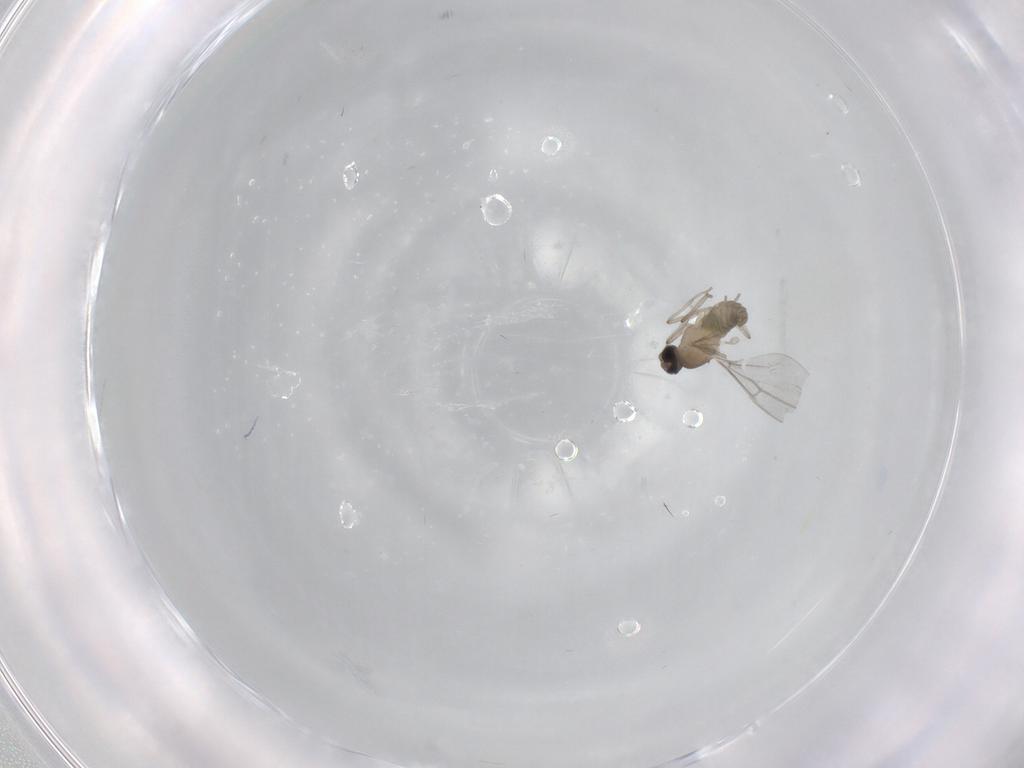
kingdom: Animalia
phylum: Arthropoda
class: Insecta
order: Diptera
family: Cecidomyiidae
